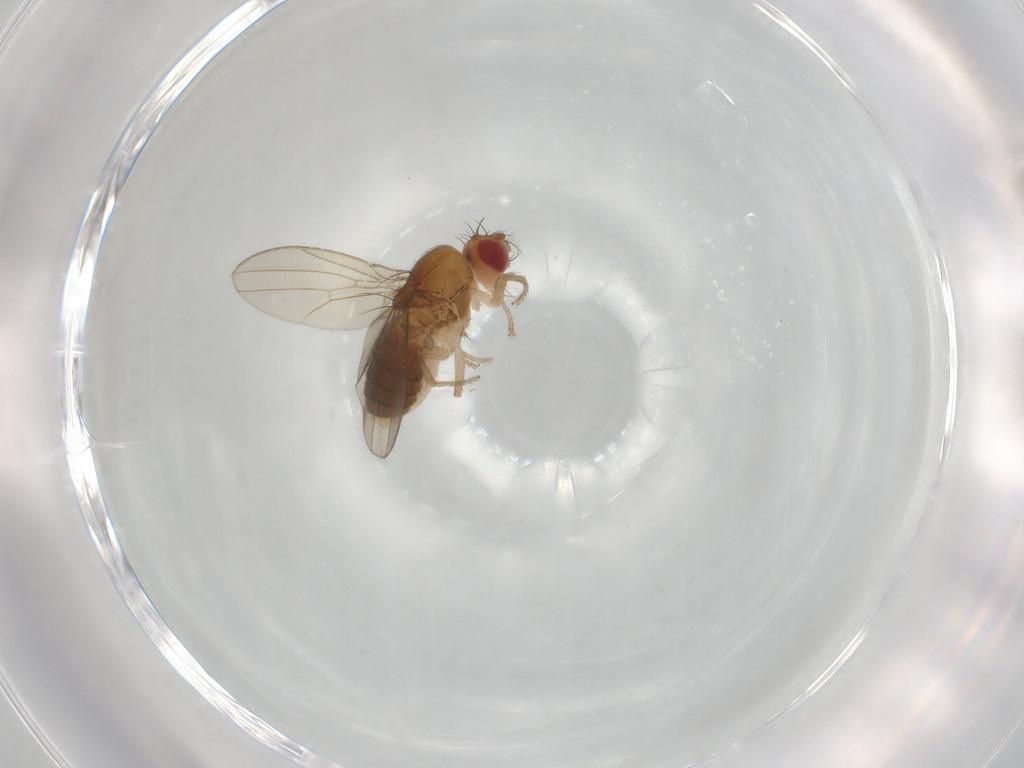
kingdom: Animalia
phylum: Arthropoda
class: Insecta
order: Diptera
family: Drosophilidae
